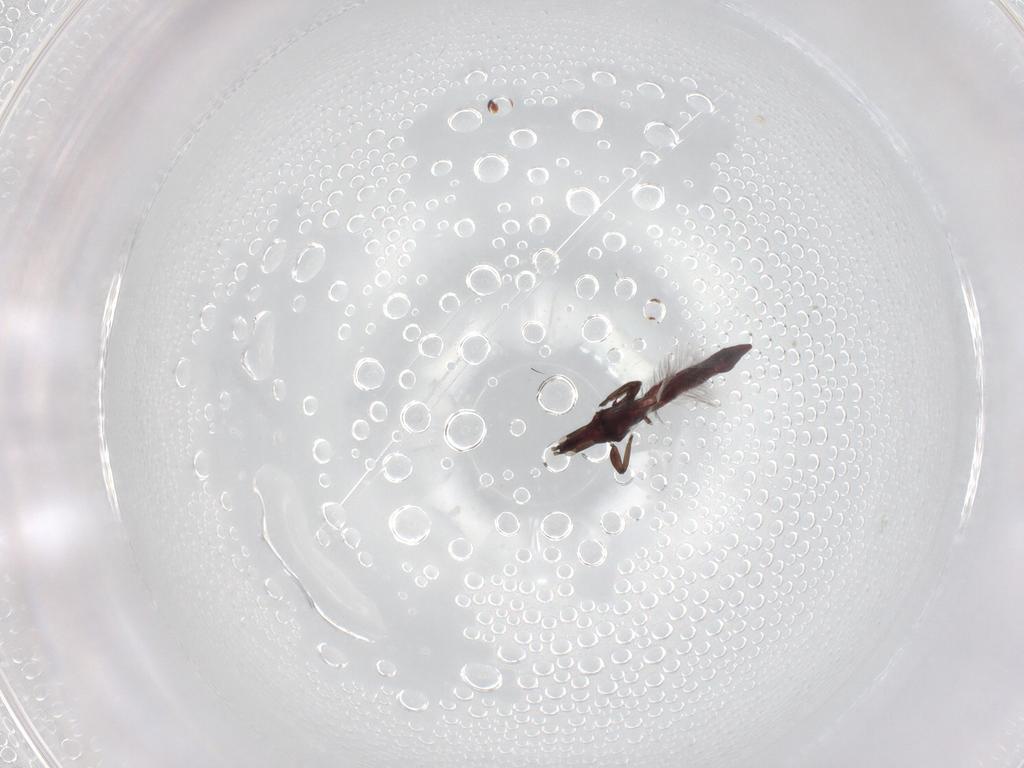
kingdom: Animalia
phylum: Arthropoda
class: Insecta
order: Thysanoptera
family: Phlaeothripidae
